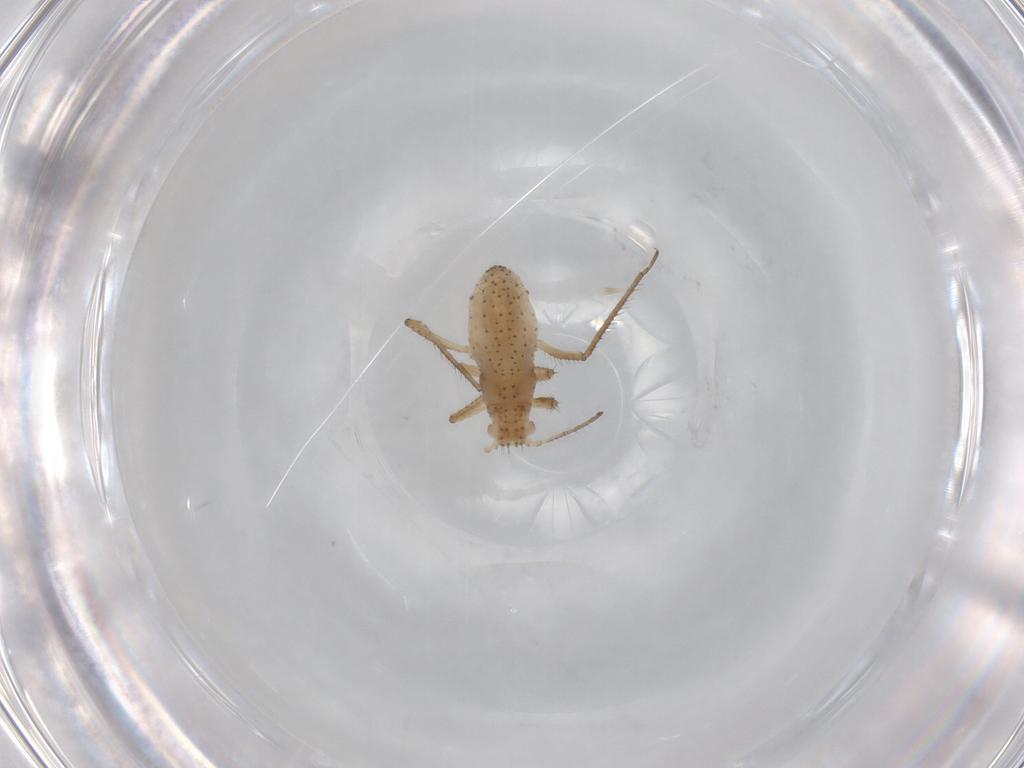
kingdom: Animalia
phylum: Arthropoda
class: Insecta
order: Hemiptera
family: Aphididae
